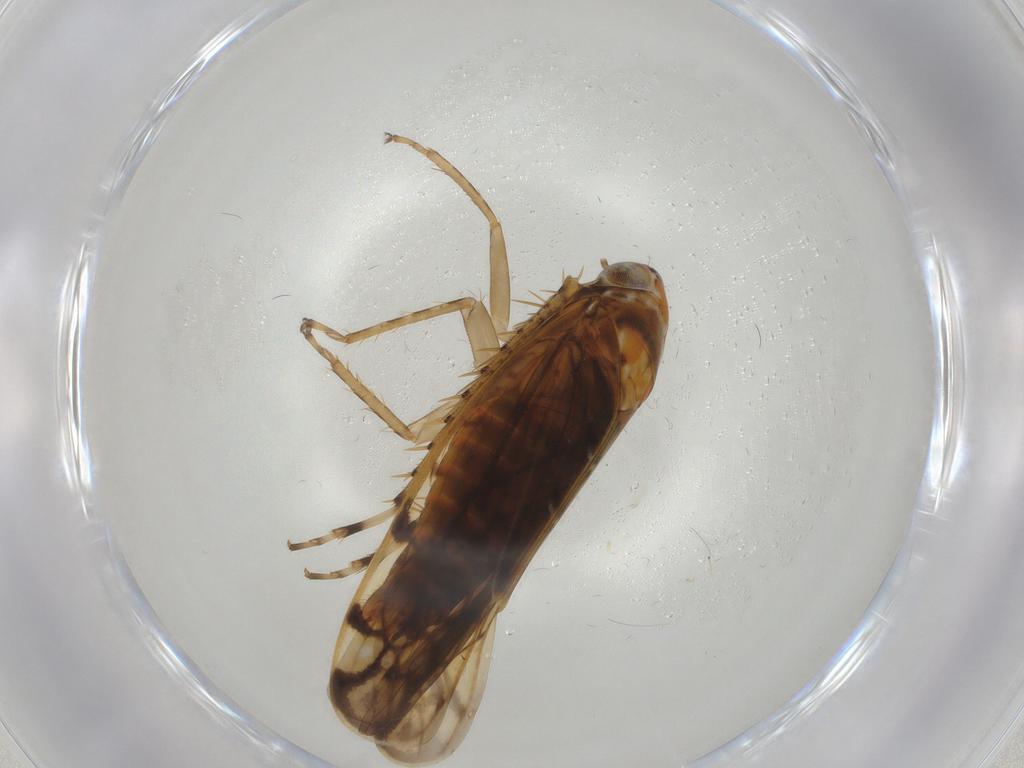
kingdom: Animalia
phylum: Arthropoda
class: Insecta
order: Hemiptera
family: Cicadellidae
